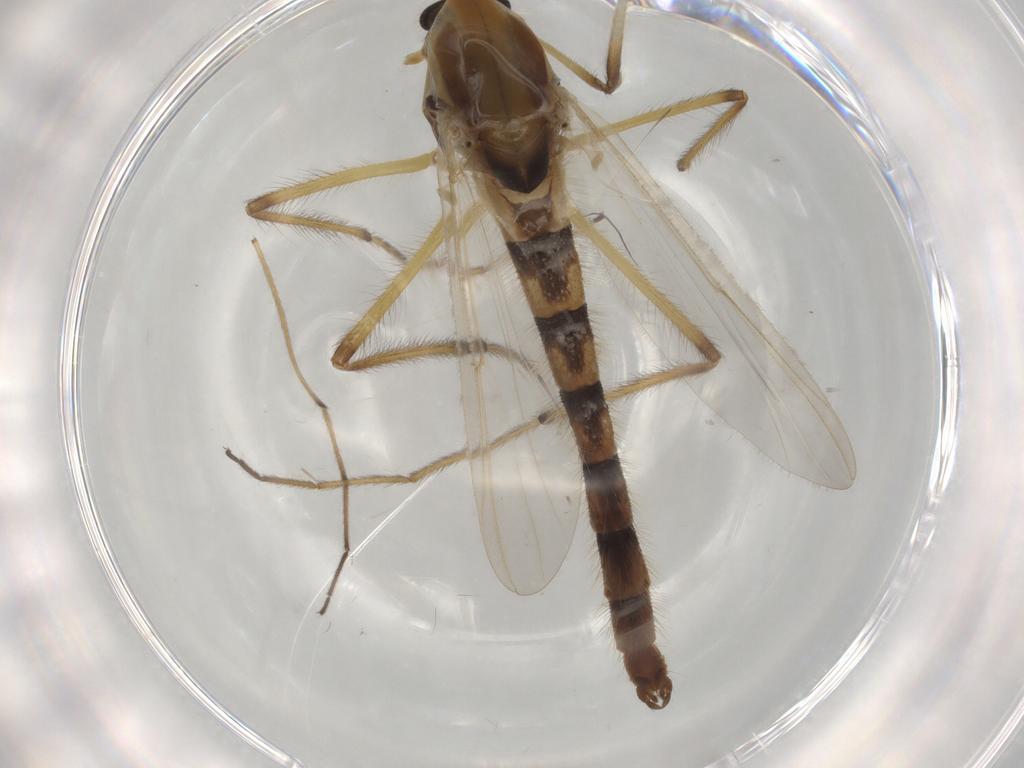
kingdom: Animalia
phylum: Arthropoda
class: Insecta
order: Diptera
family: Chironomidae
